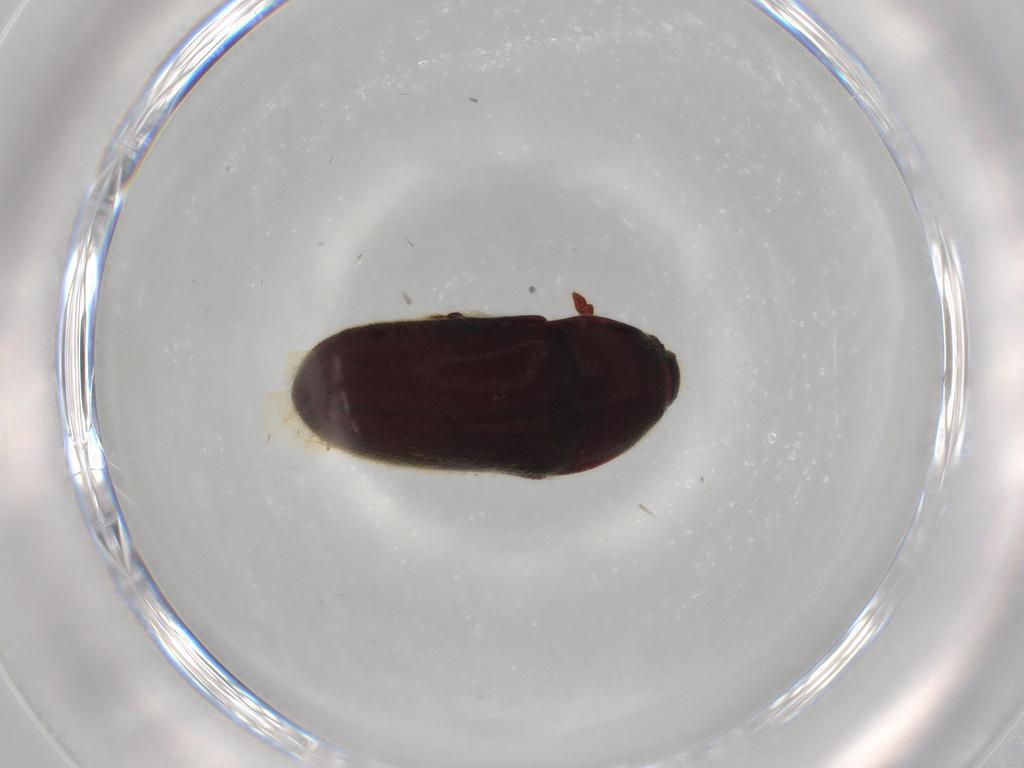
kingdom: Animalia
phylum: Arthropoda
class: Insecta
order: Coleoptera
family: Throscidae
